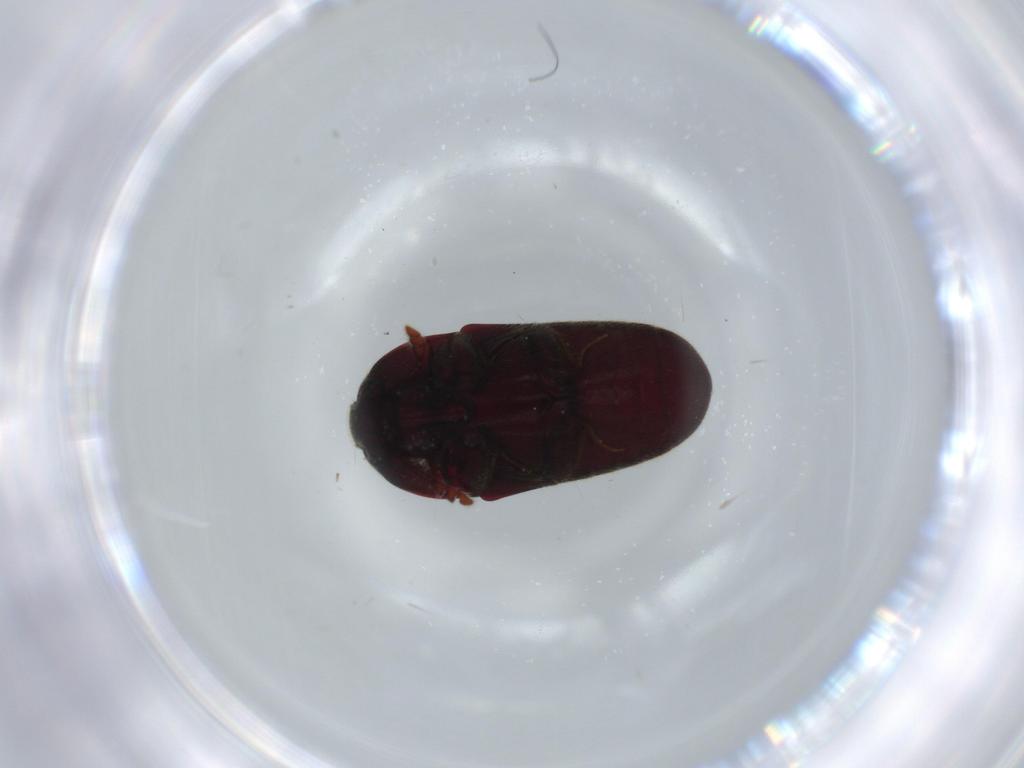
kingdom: Animalia
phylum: Arthropoda
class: Insecta
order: Coleoptera
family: Throscidae
